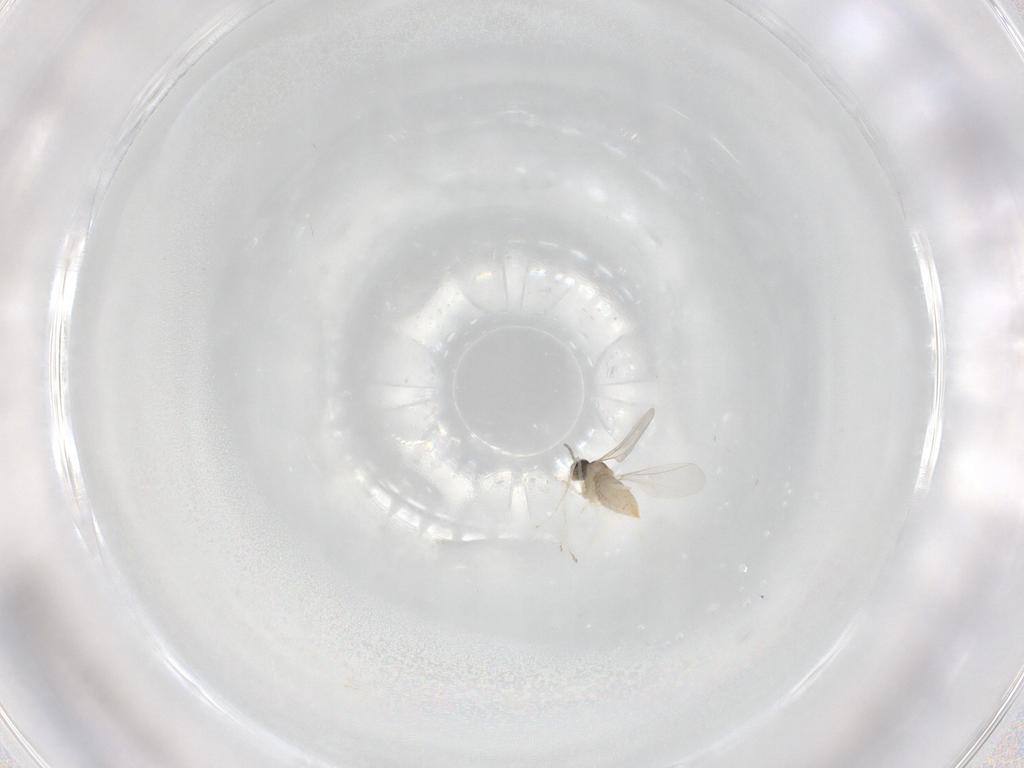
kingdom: Animalia
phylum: Arthropoda
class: Insecta
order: Diptera
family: Cecidomyiidae
